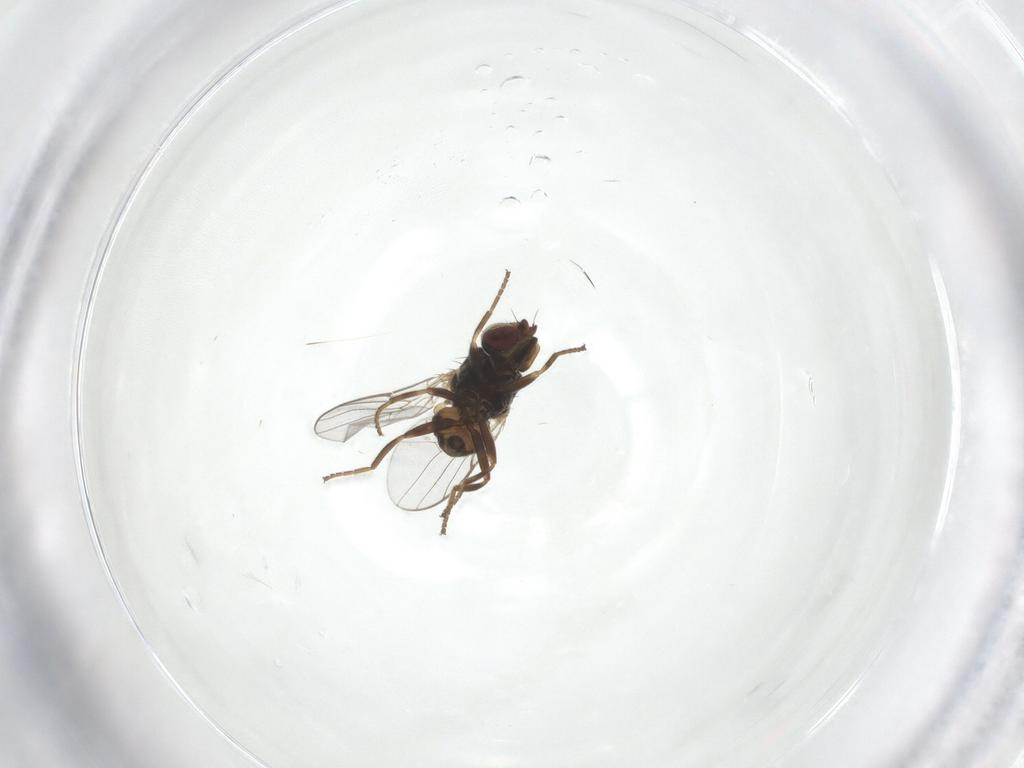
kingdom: Animalia
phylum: Arthropoda
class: Insecta
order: Diptera
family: Chloropidae
